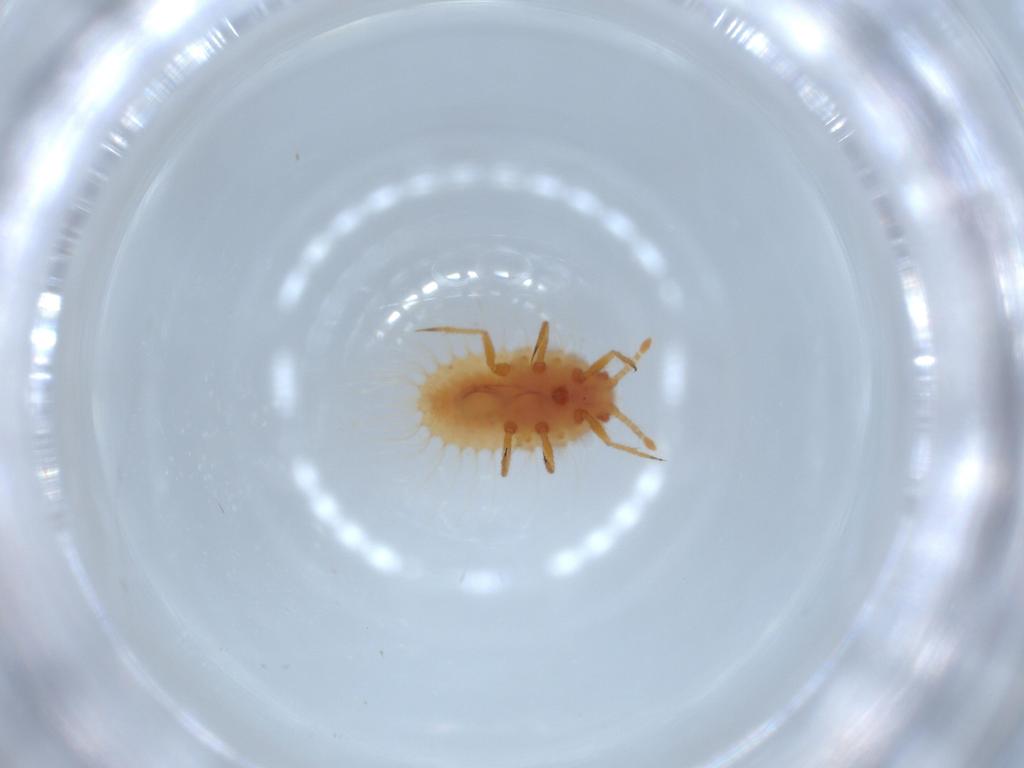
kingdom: Animalia
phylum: Arthropoda
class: Insecta
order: Hemiptera
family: Coccoidea_incertae_sedis
